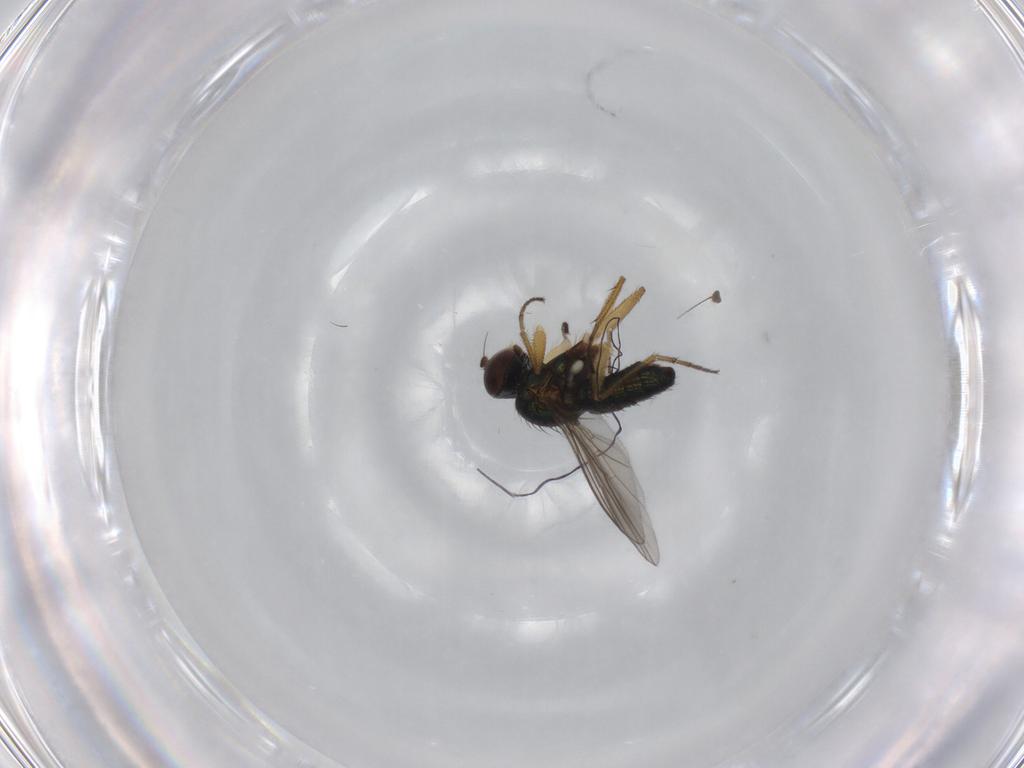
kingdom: Animalia
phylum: Arthropoda
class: Insecta
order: Diptera
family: Dolichopodidae
